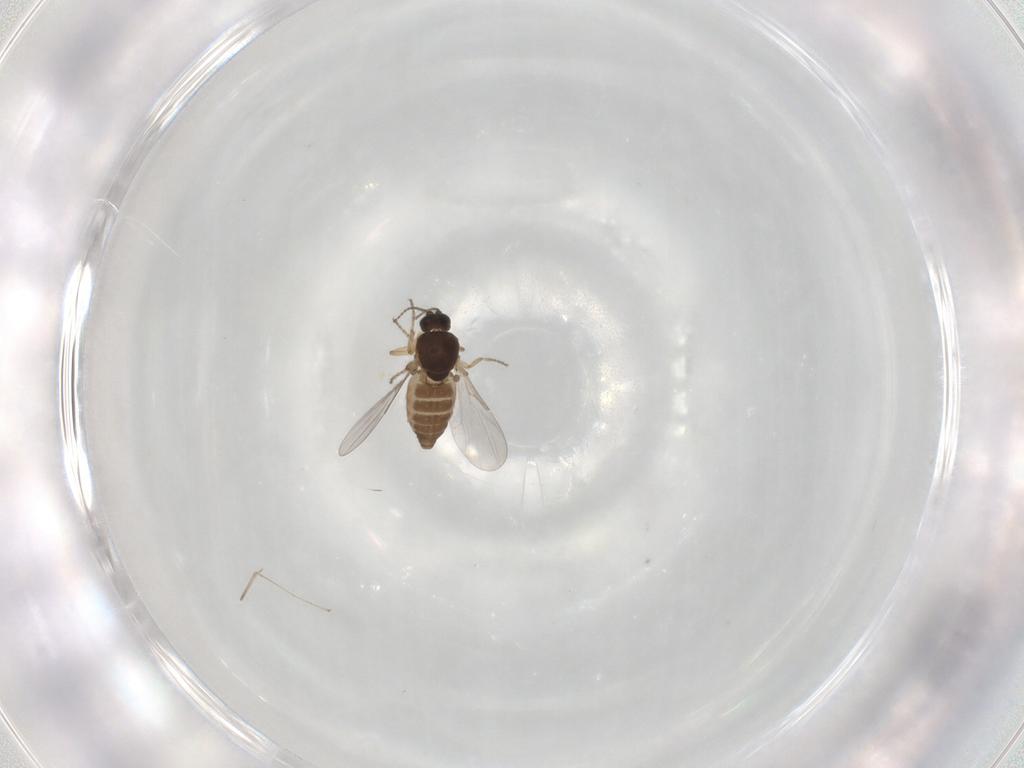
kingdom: Animalia
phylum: Arthropoda
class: Insecta
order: Diptera
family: Cecidomyiidae
